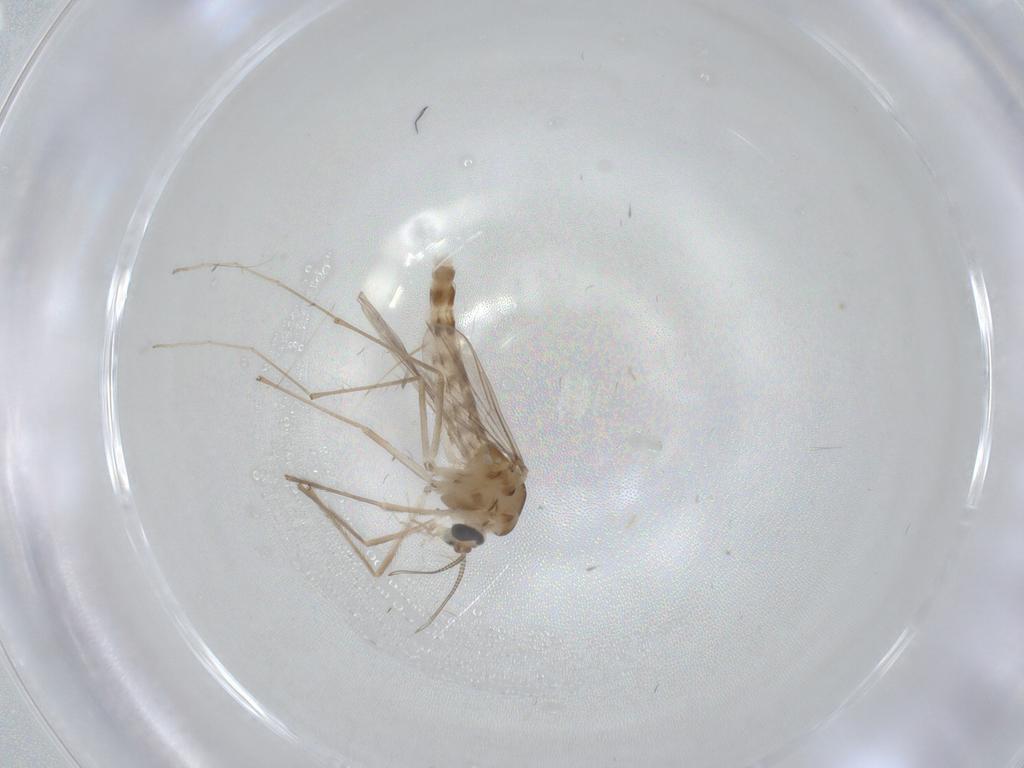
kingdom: Animalia
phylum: Arthropoda
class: Insecta
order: Diptera
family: Chironomidae
